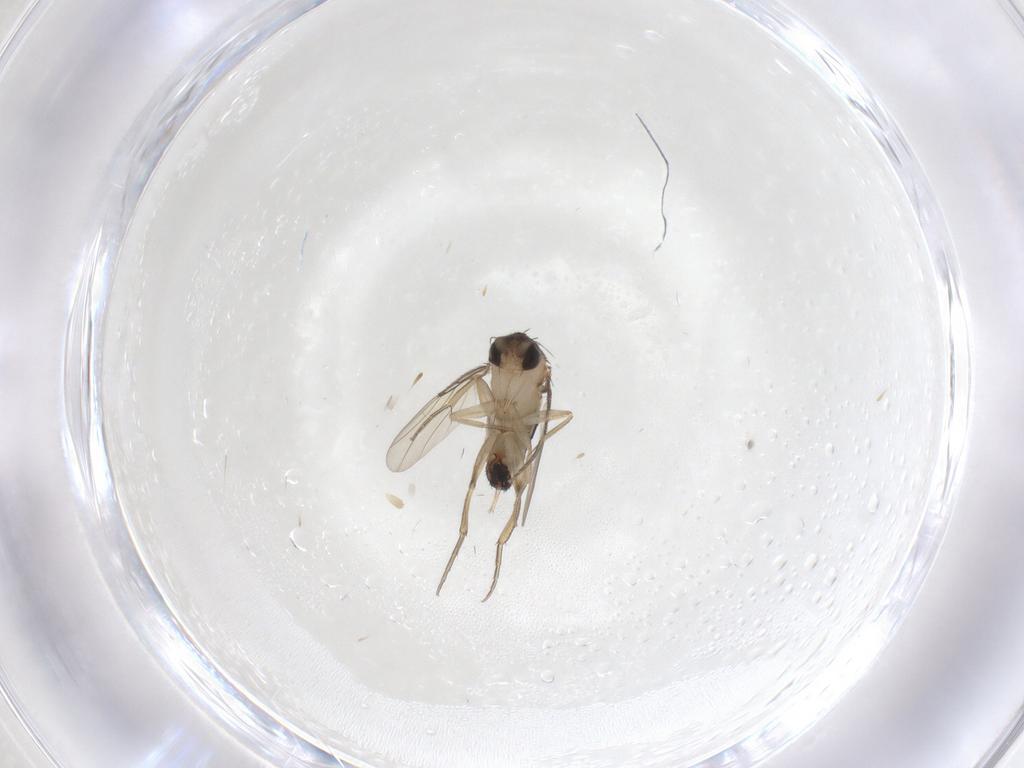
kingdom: Animalia
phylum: Arthropoda
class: Insecta
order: Diptera
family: Phoridae
